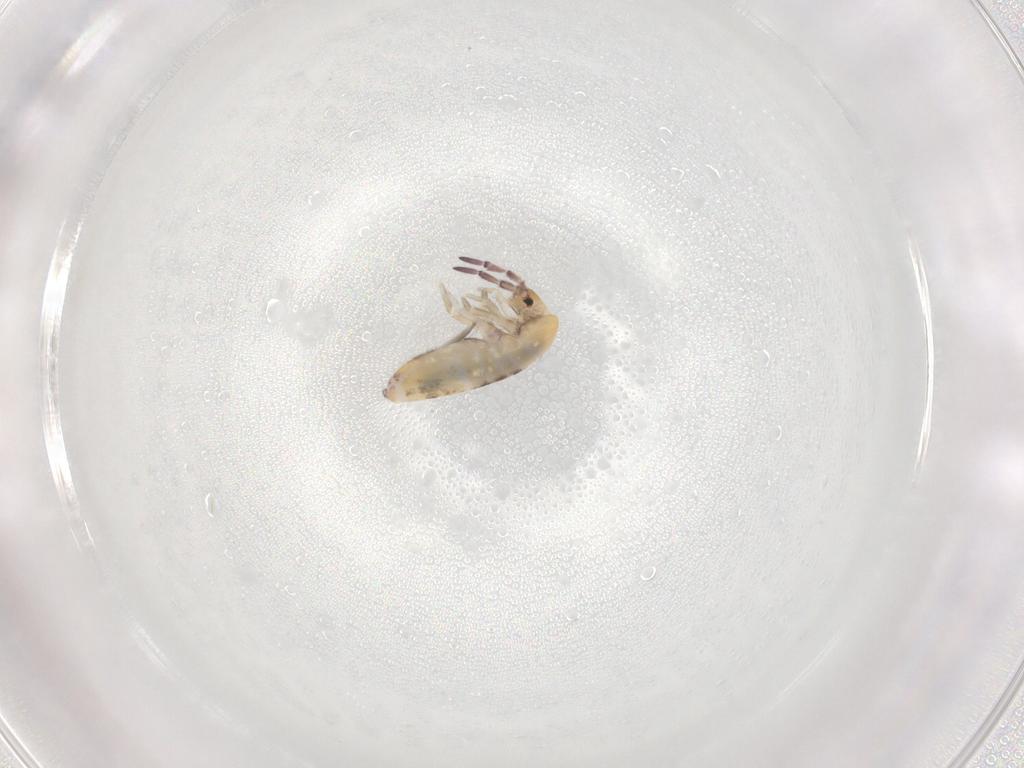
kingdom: Animalia
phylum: Arthropoda
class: Collembola
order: Entomobryomorpha
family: Entomobryidae
